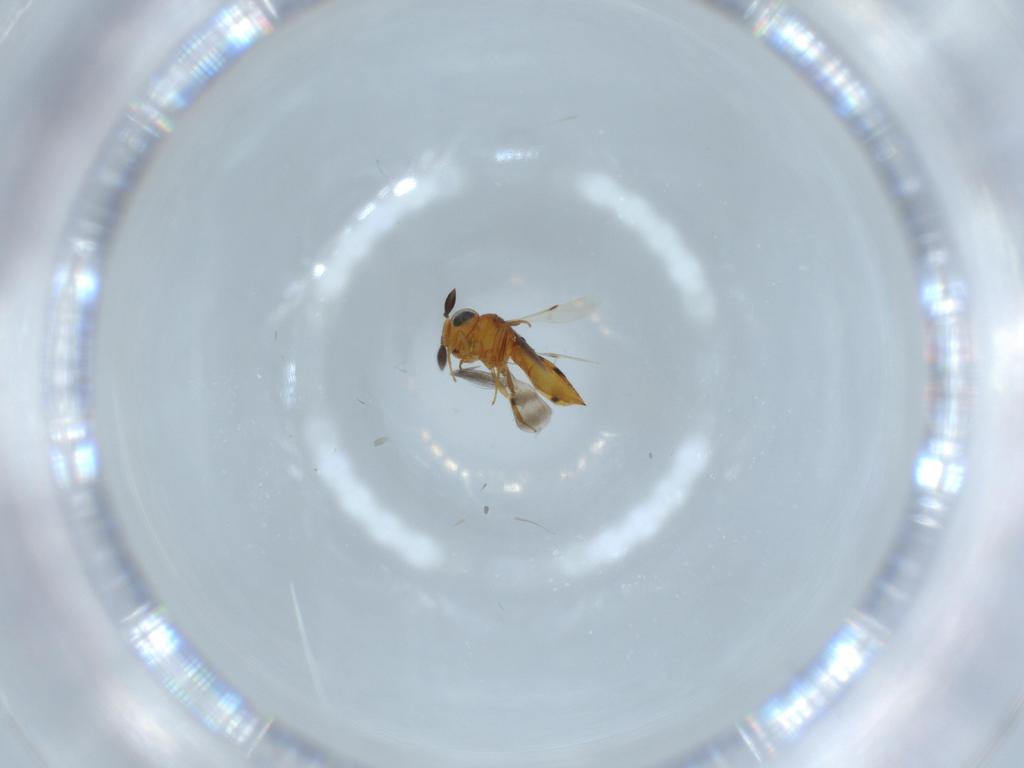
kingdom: Animalia
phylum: Arthropoda
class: Insecta
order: Hymenoptera
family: Scelionidae
